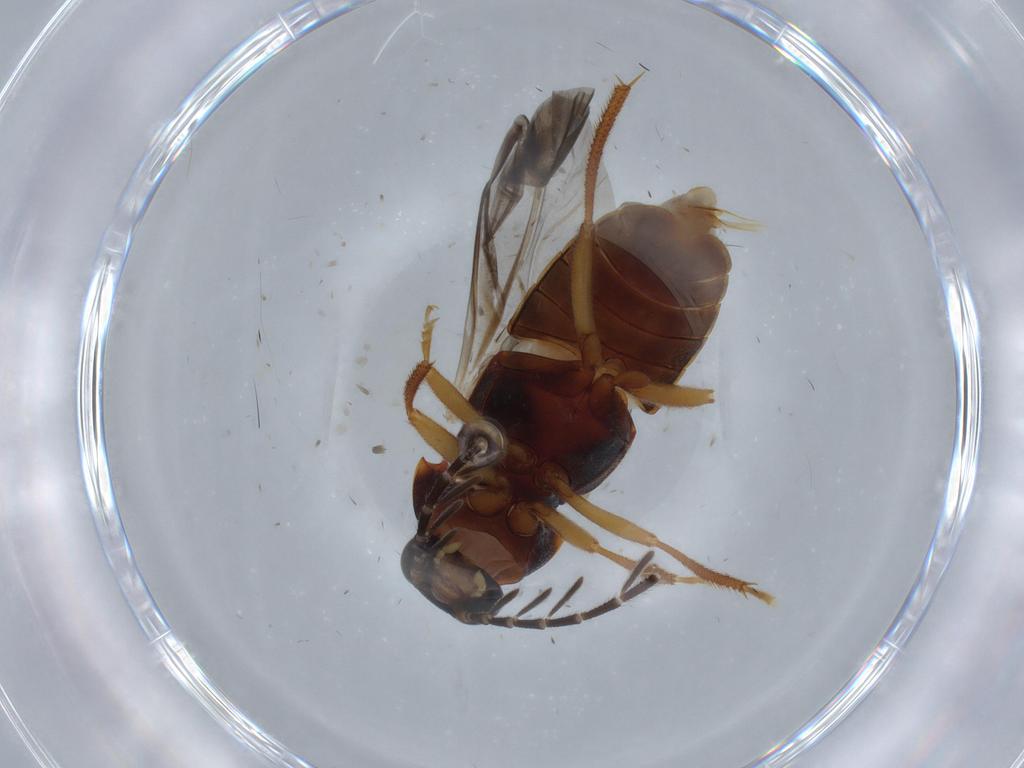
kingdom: Animalia
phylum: Arthropoda
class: Insecta
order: Coleoptera
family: Ptilodactylidae
